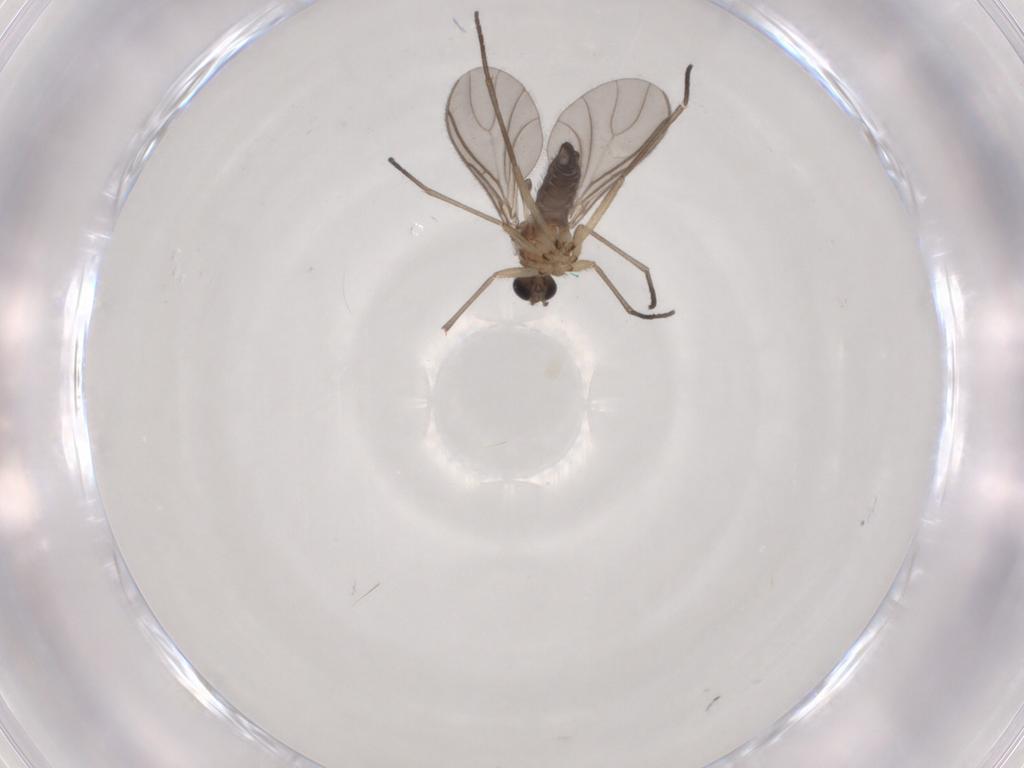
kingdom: Animalia
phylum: Arthropoda
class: Insecta
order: Diptera
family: Sciaridae
